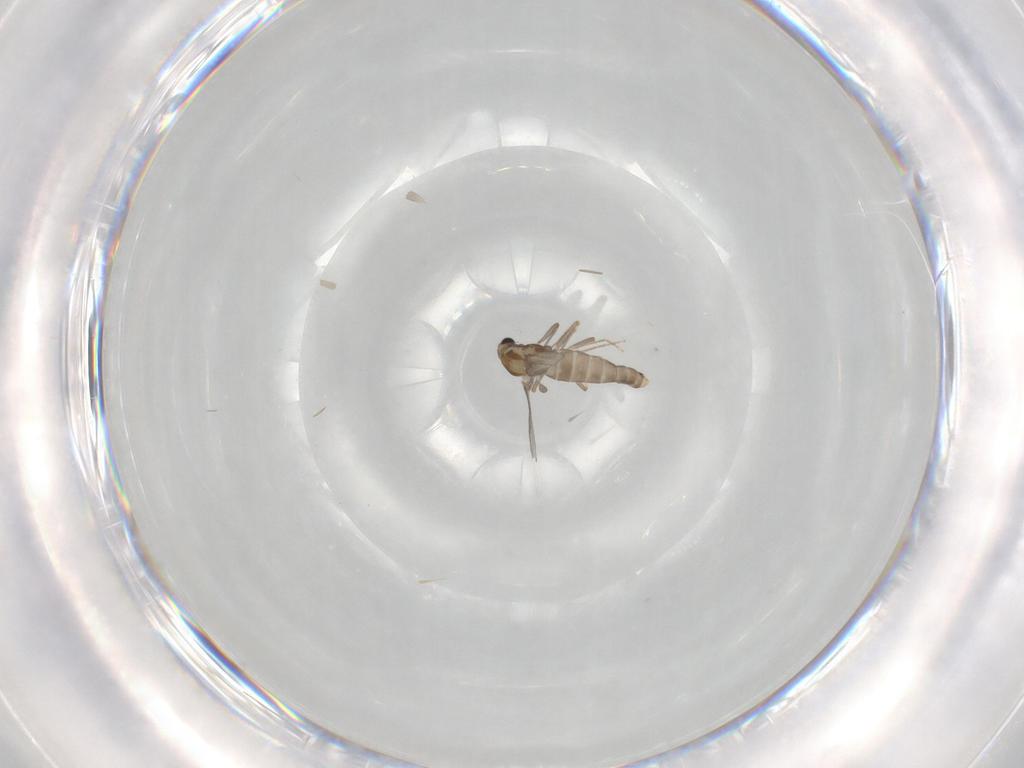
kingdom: Animalia
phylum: Arthropoda
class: Insecta
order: Diptera
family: Chironomidae
